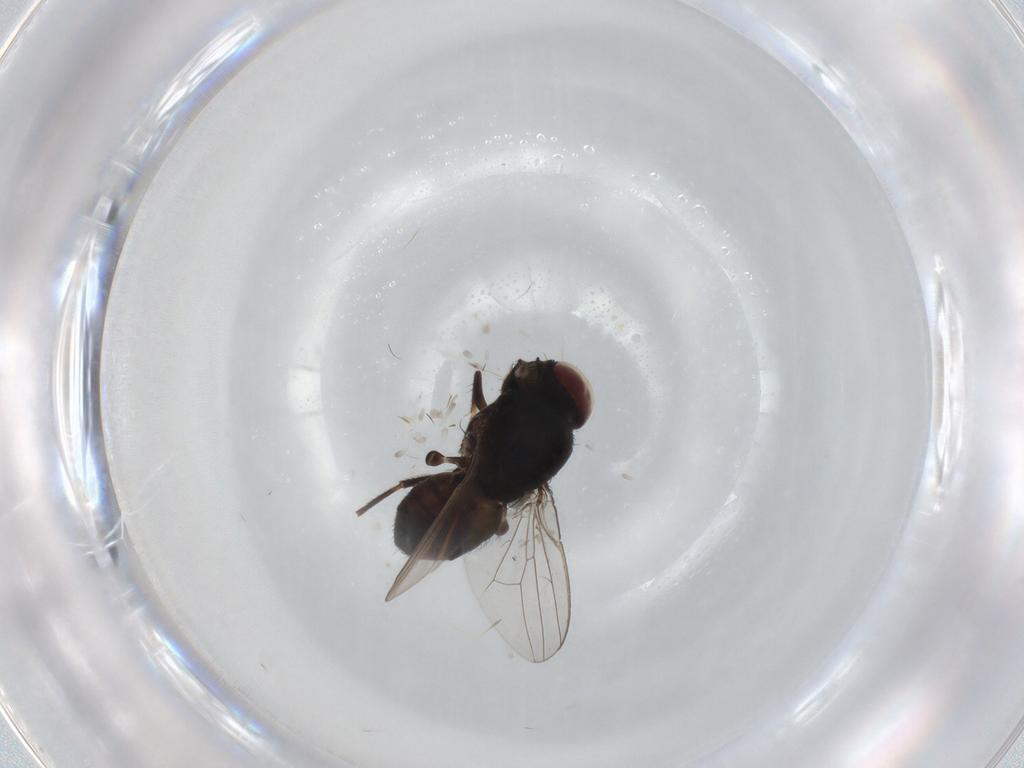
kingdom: Animalia
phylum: Arthropoda
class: Insecta
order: Diptera
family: Milichiidae
